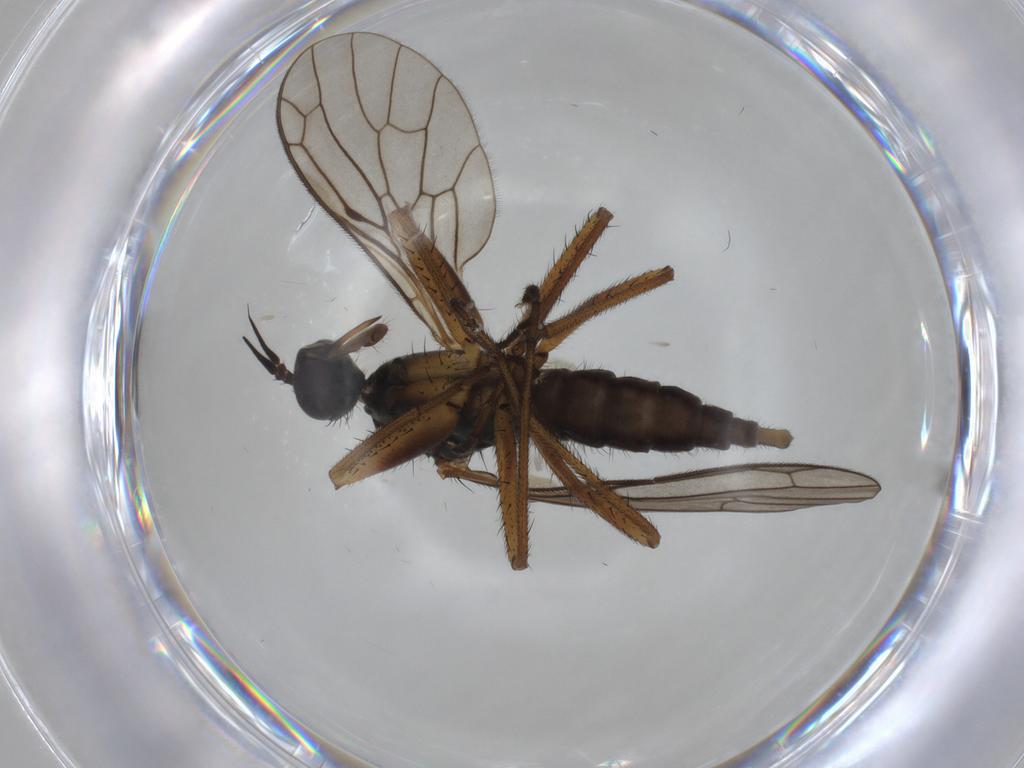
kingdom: Animalia
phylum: Arthropoda
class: Insecta
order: Diptera
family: Ceratopogonidae
